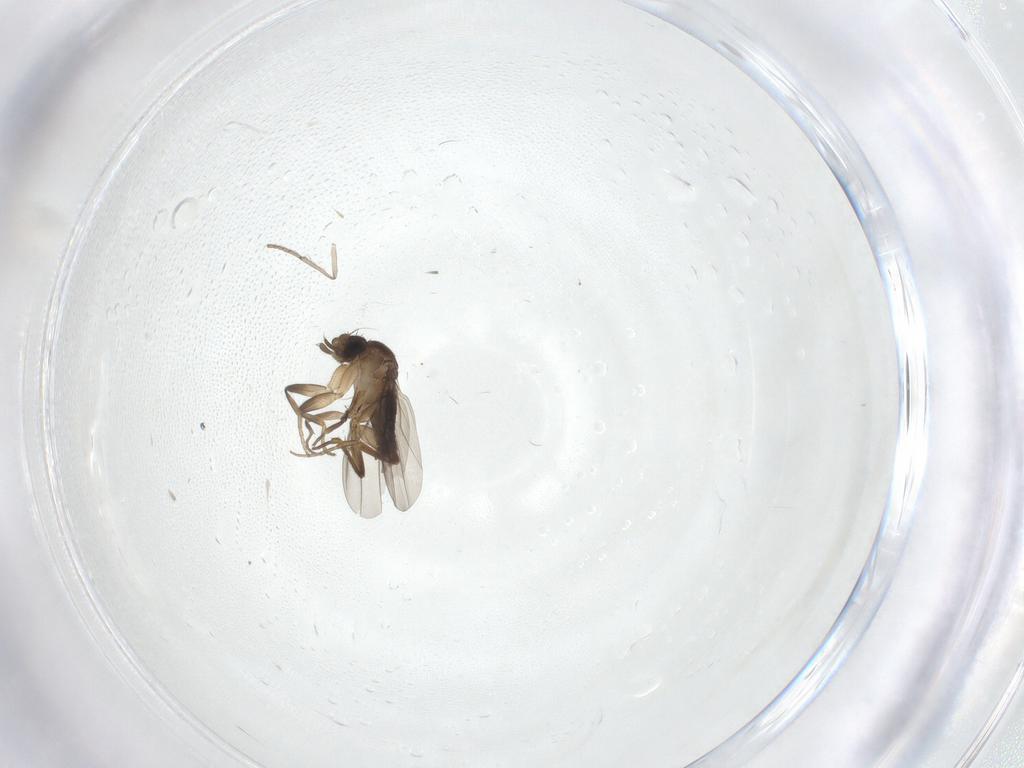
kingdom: Animalia
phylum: Arthropoda
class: Insecta
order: Diptera
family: Psychodidae
